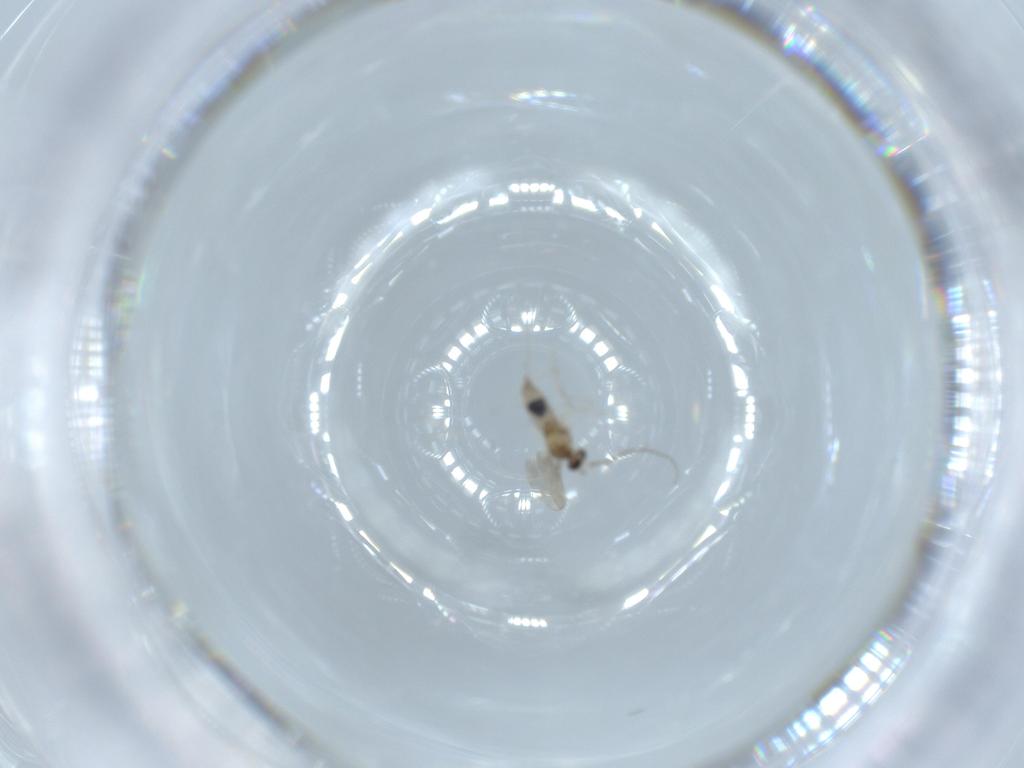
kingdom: Animalia
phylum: Arthropoda
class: Insecta
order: Diptera
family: Cecidomyiidae
